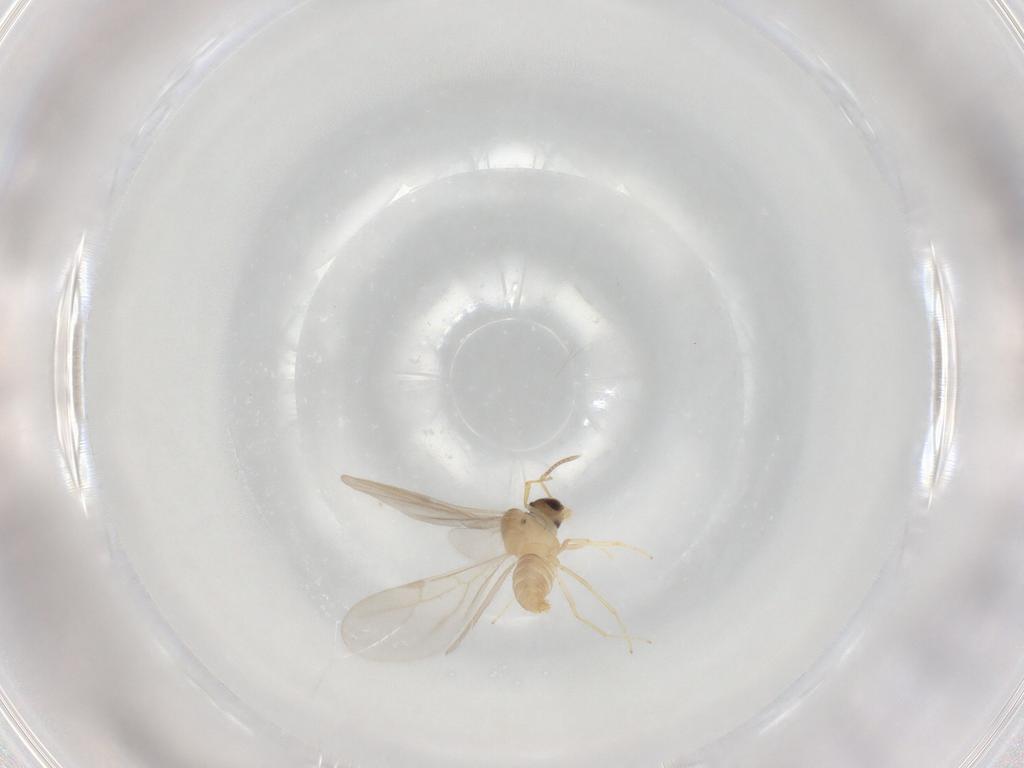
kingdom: Animalia
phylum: Arthropoda
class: Insecta
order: Hymenoptera
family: Formicidae
